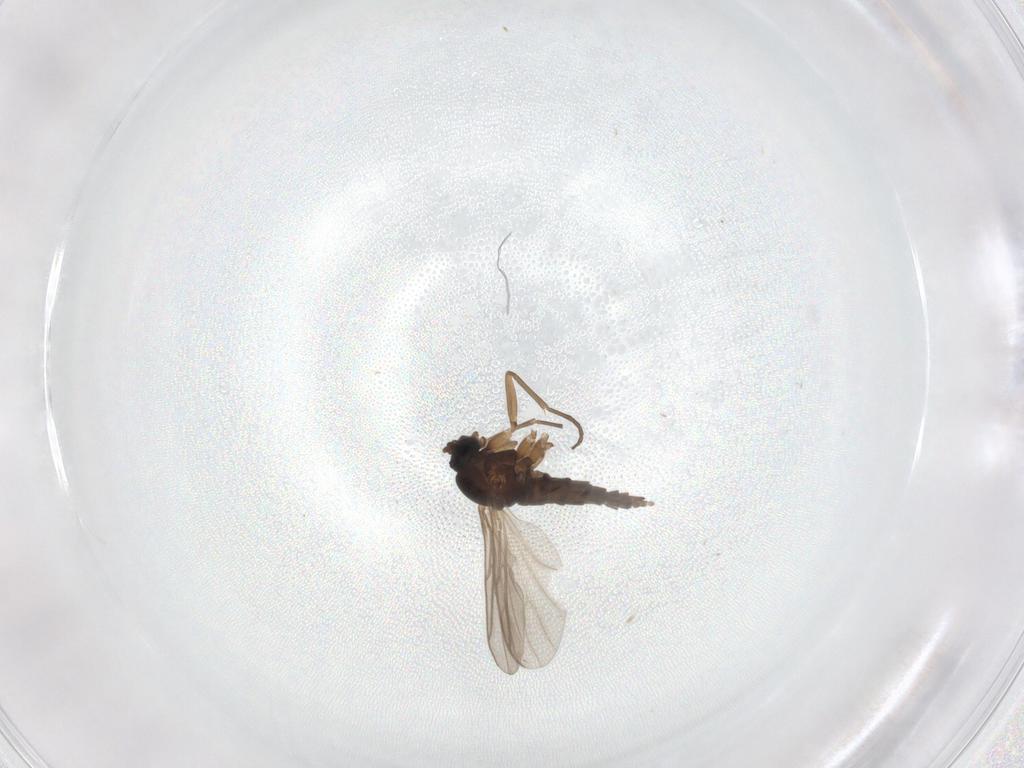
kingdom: Animalia
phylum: Arthropoda
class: Insecta
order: Diptera
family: Sciaridae
